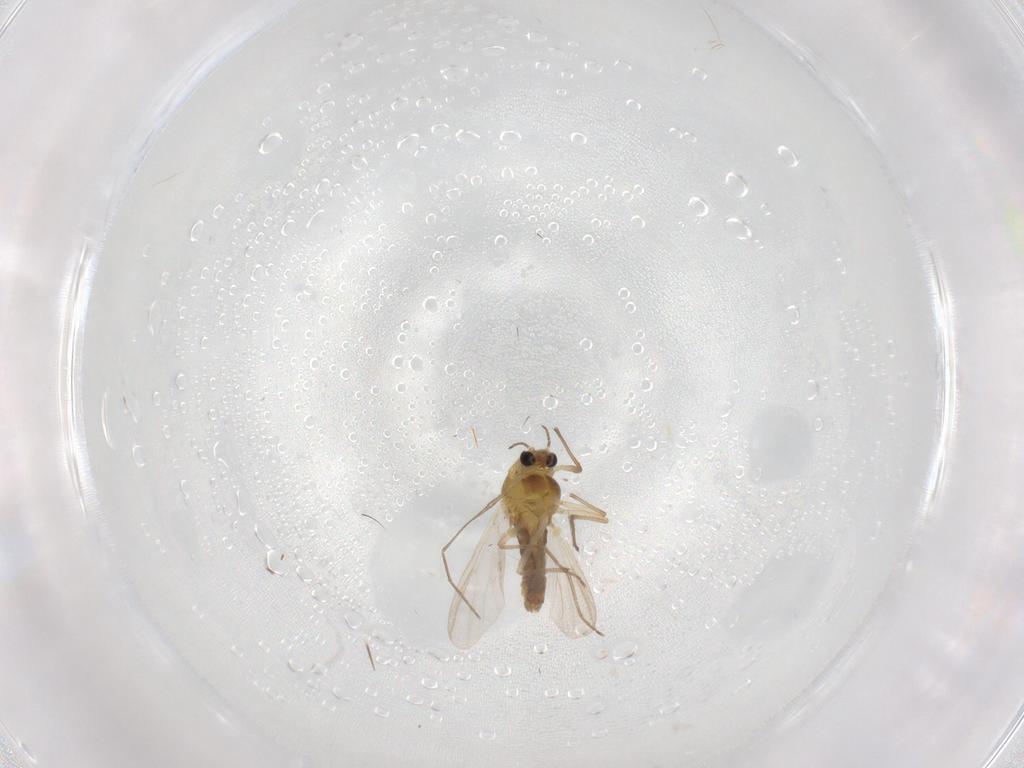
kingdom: Animalia
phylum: Arthropoda
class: Insecta
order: Diptera
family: Chironomidae
